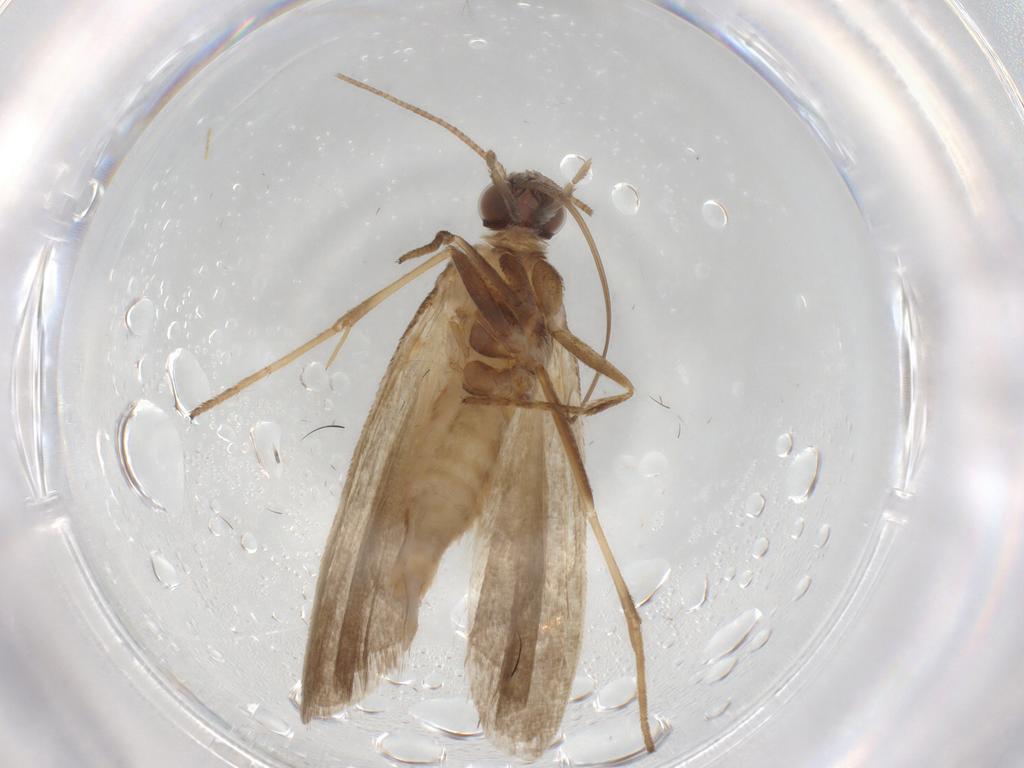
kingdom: Animalia
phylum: Arthropoda
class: Insecta
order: Lepidoptera
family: Noctuidae
